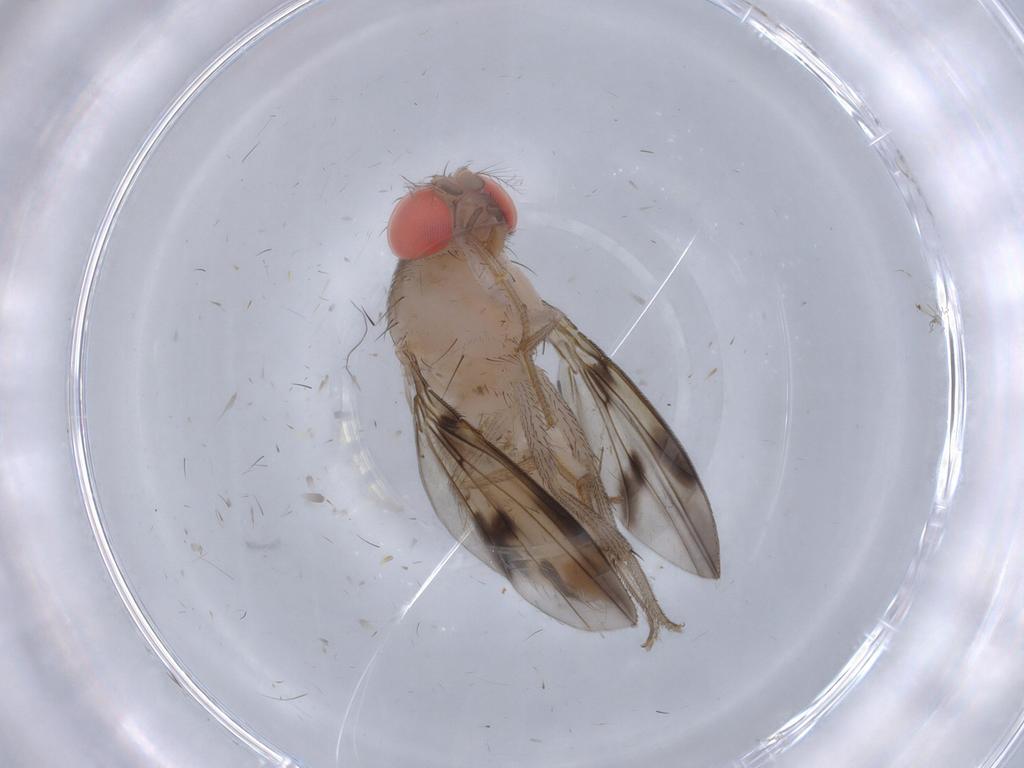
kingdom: Animalia
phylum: Arthropoda
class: Insecta
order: Diptera
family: Drosophilidae
